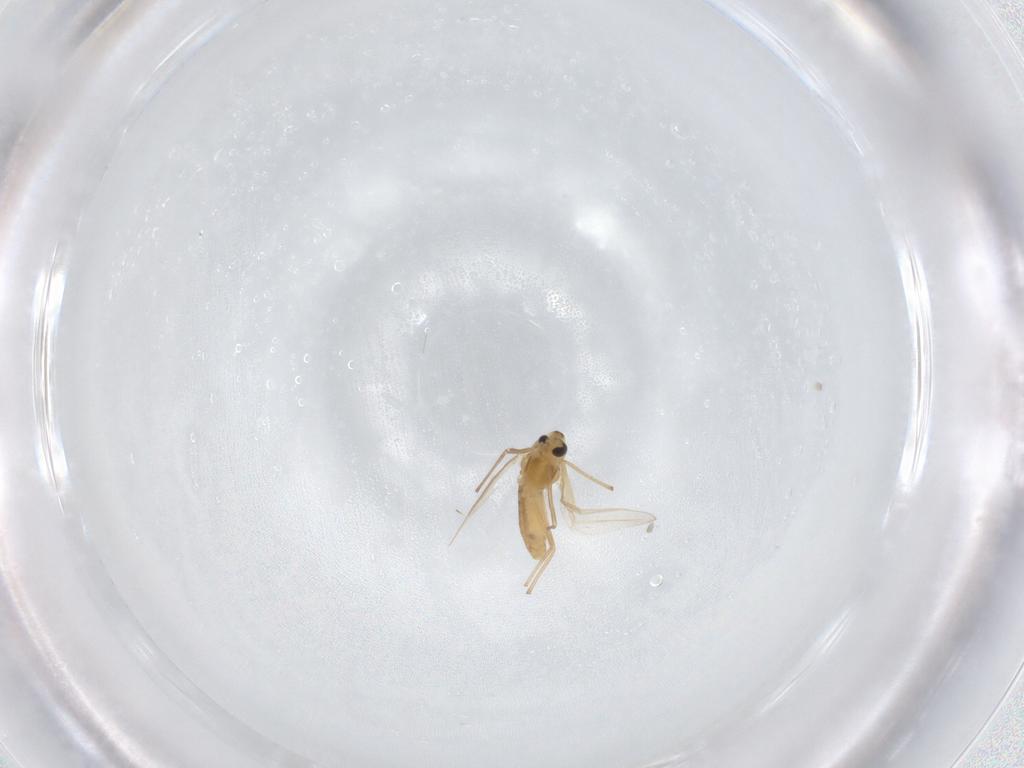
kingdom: Animalia
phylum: Arthropoda
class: Insecta
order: Diptera
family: Chironomidae
